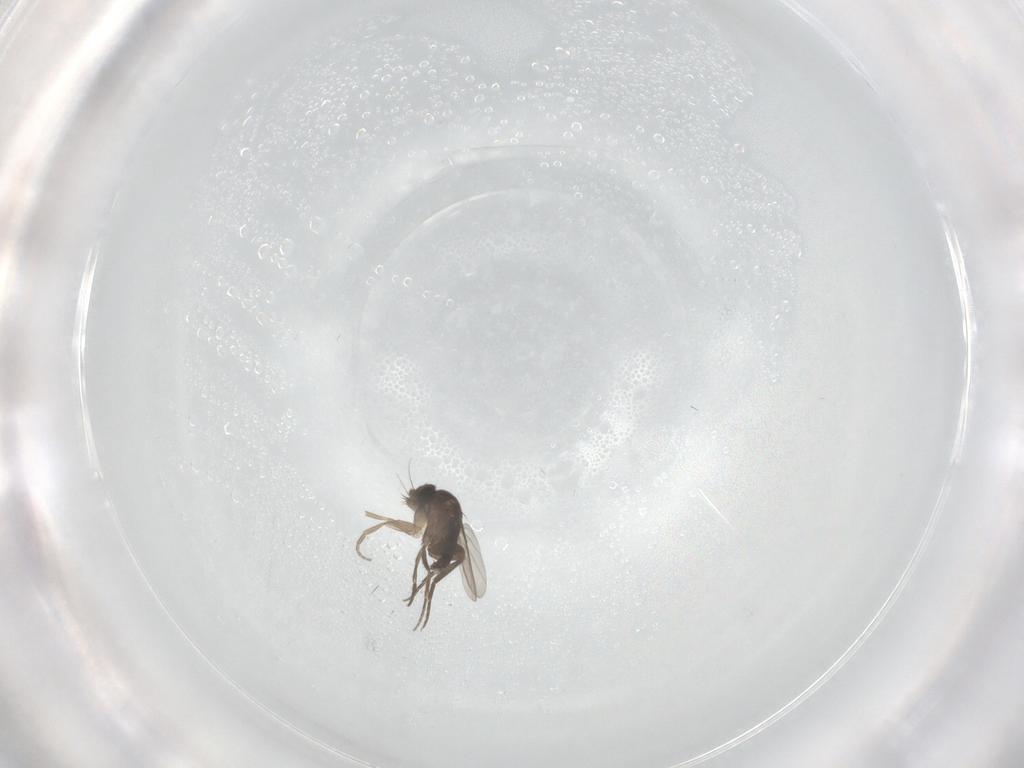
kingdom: Animalia
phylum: Arthropoda
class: Insecta
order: Diptera
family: Phoridae
